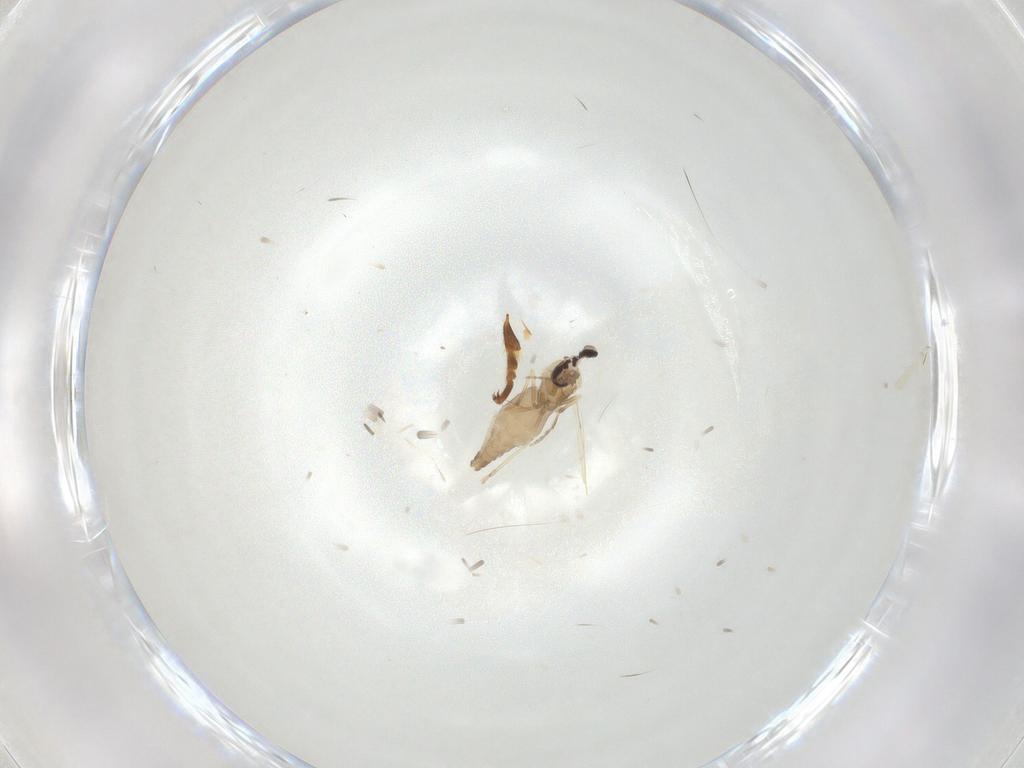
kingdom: Animalia
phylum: Arthropoda
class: Insecta
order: Diptera
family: Ceratopogonidae
